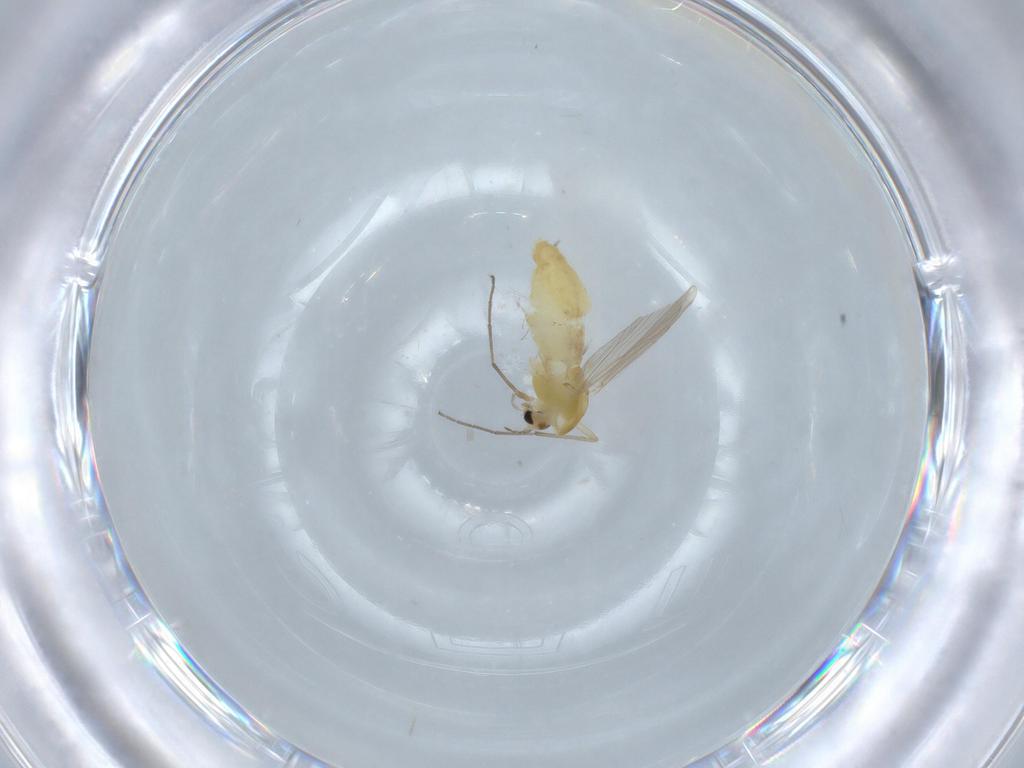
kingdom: Animalia
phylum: Arthropoda
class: Insecta
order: Diptera
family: Chironomidae
